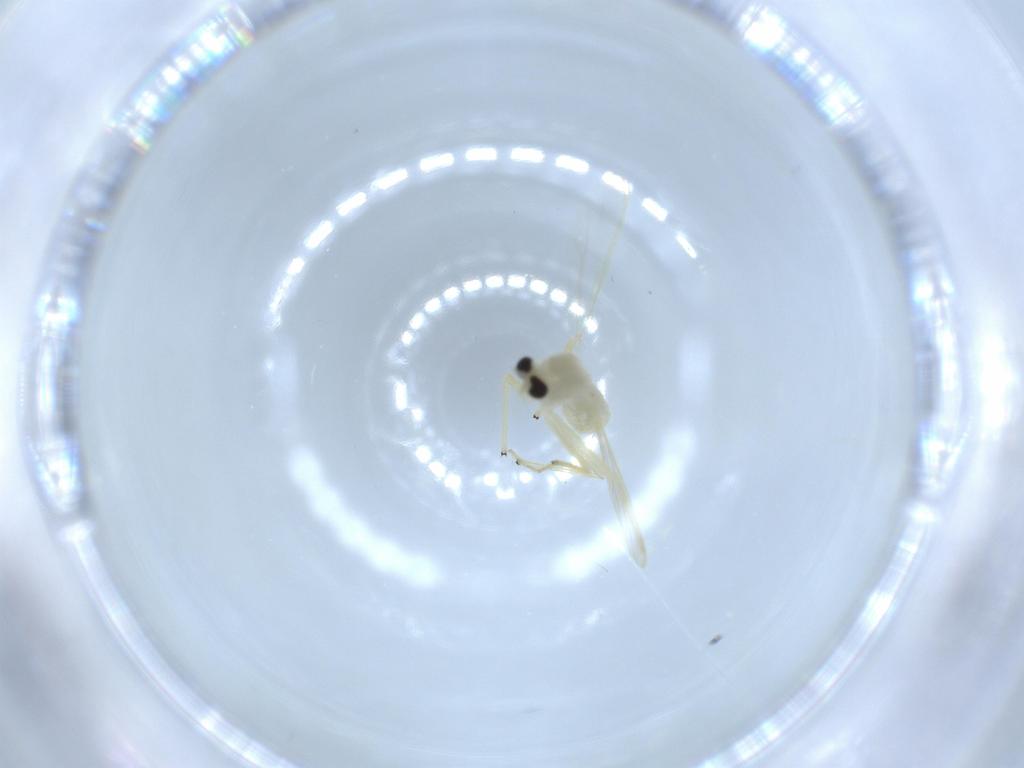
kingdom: Animalia
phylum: Arthropoda
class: Insecta
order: Diptera
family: Chironomidae
